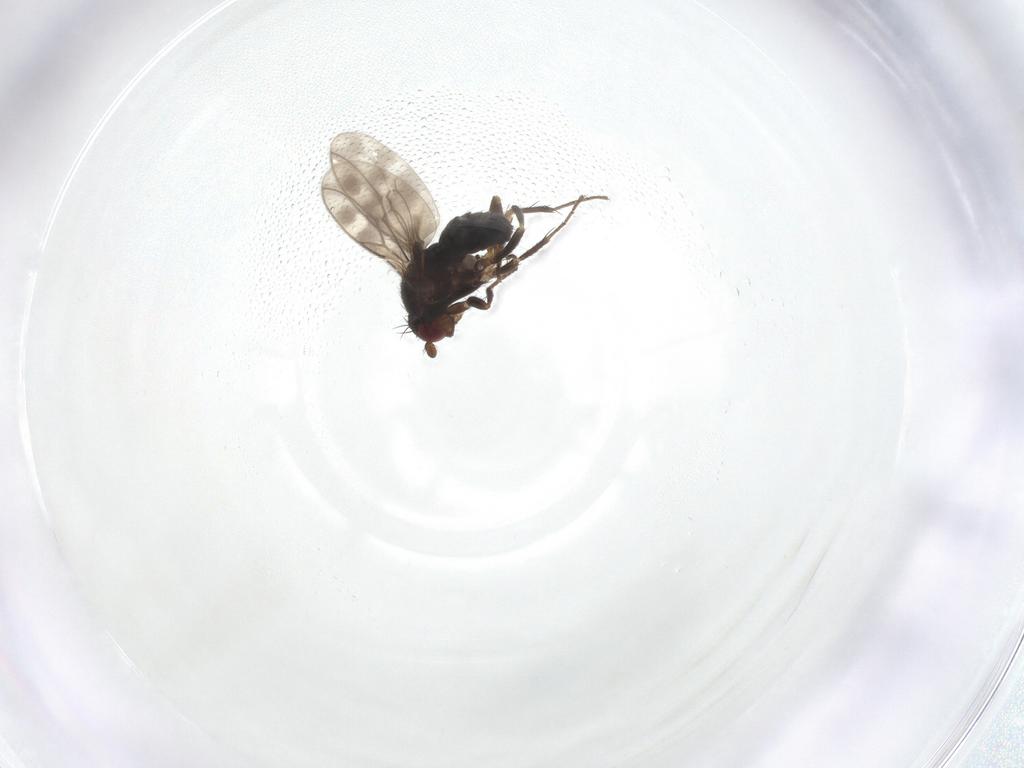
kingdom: Animalia
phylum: Arthropoda
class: Insecta
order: Diptera
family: Sphaeroceridae
